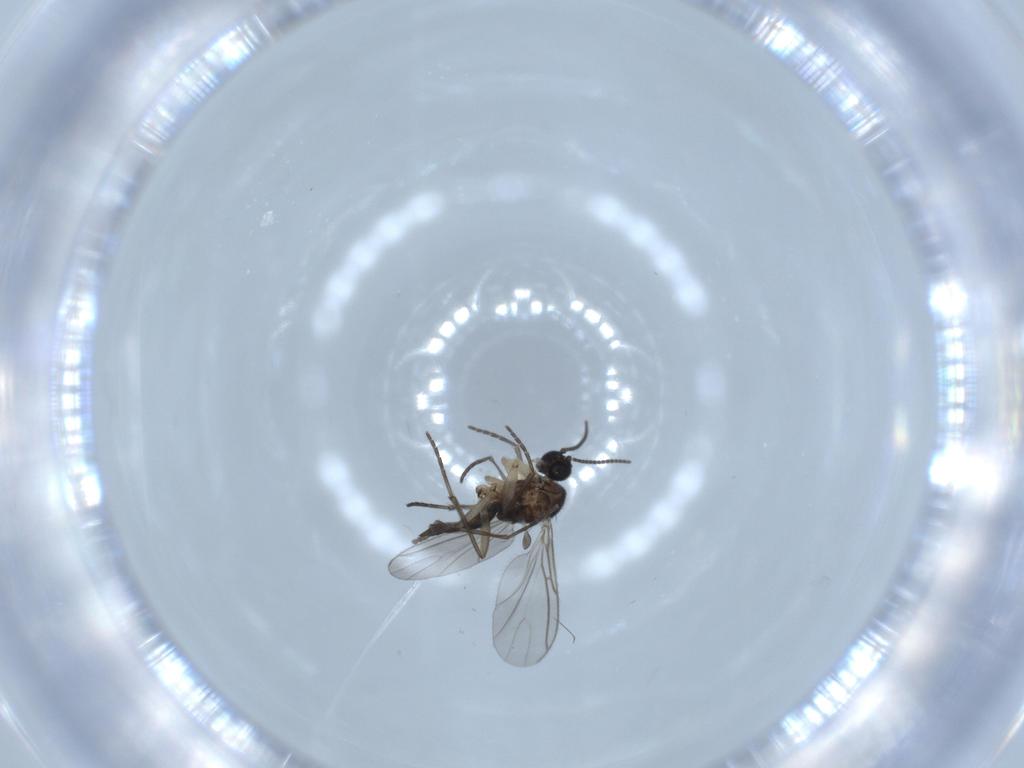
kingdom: Animalia
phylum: Arthropoda
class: Insecta
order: Diptera
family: Sciaridae
